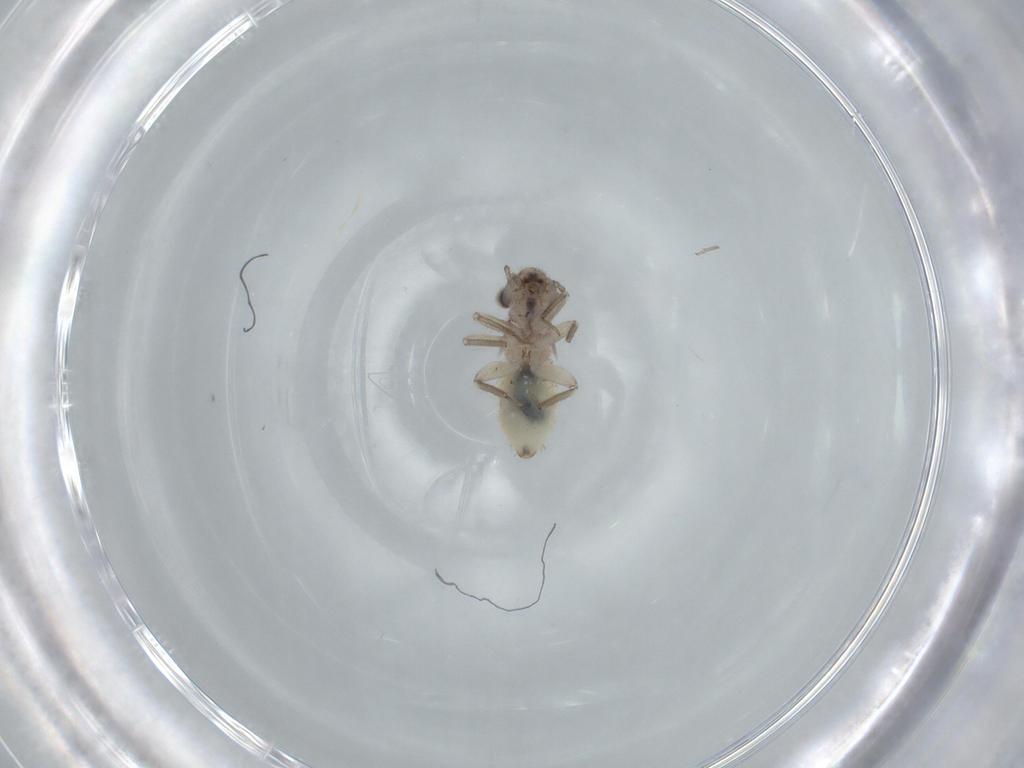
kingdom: Animalia
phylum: Arthropoda
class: Insecta
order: Psocodea
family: Lepidopsocidae
